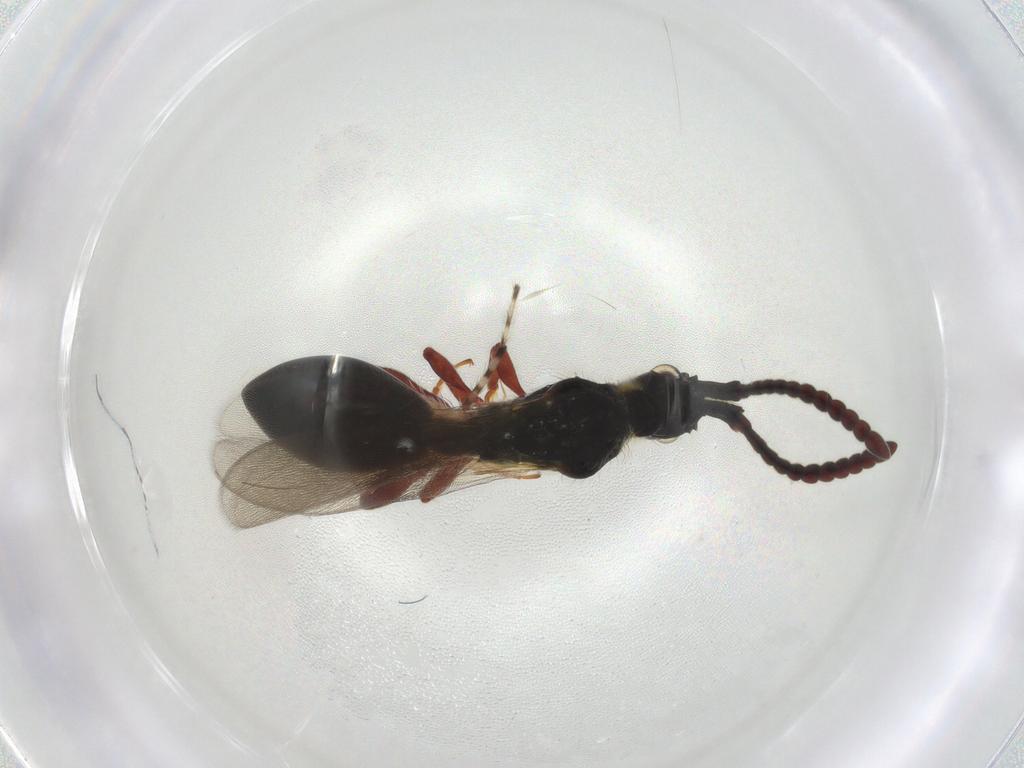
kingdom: Animalia
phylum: Arthropoda
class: Insecta
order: Hymenoptera
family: Diapriidae
